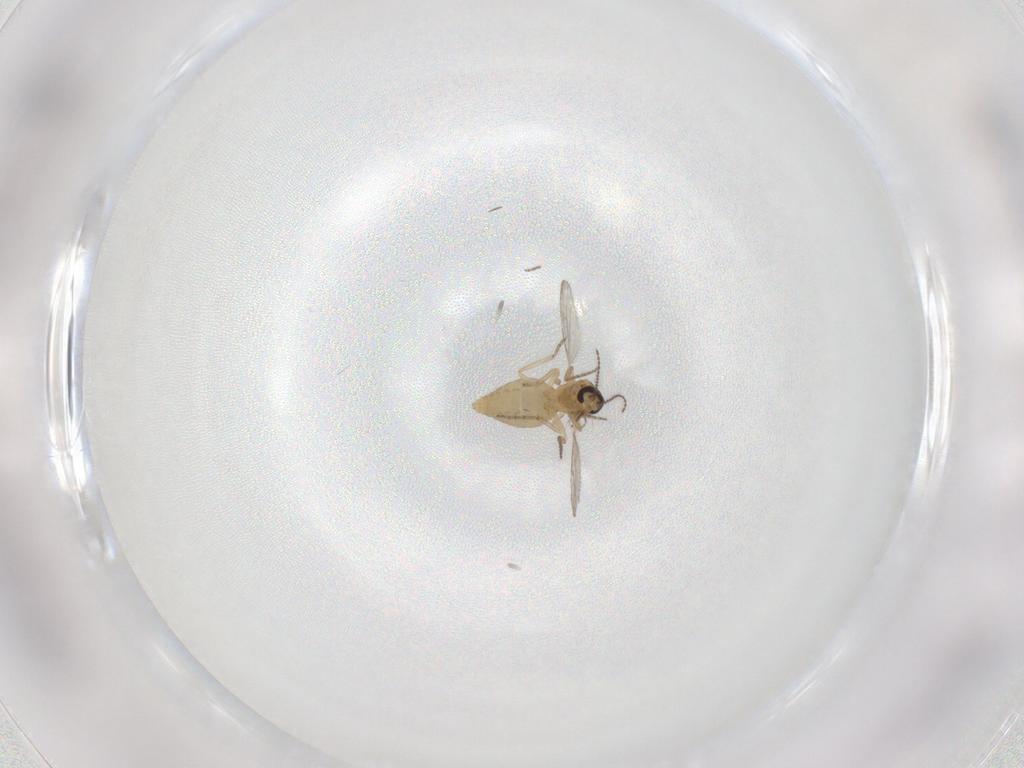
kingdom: Animalia
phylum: Arthropoda
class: Insecta
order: Diptera
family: Ceratopogonidae
